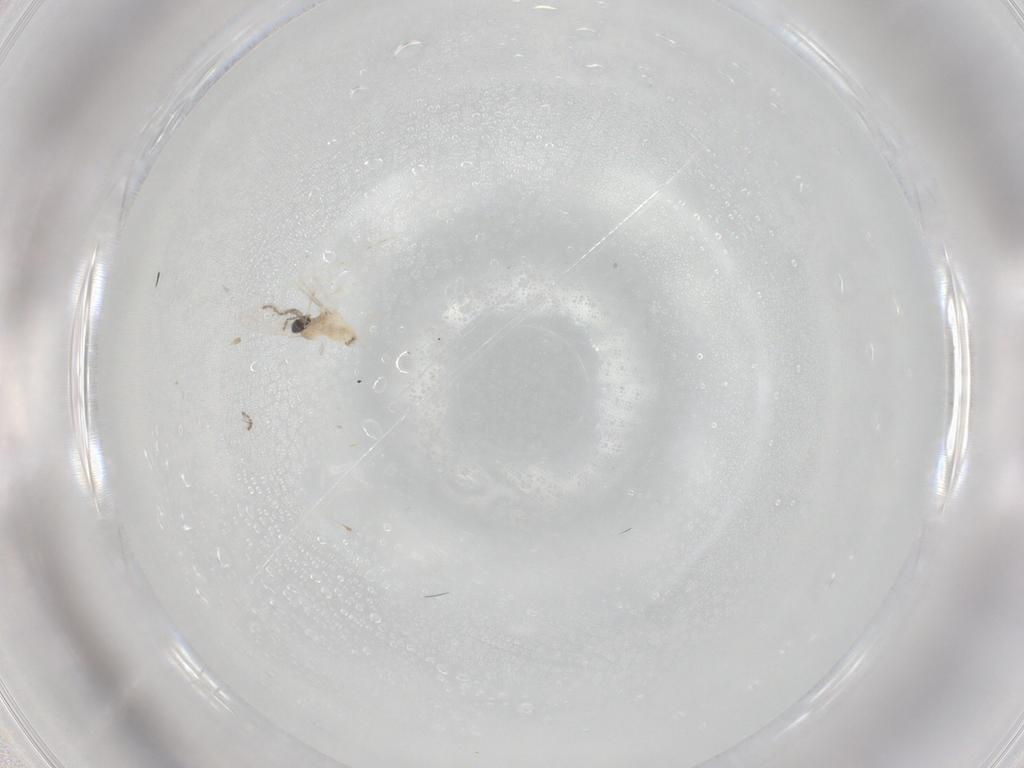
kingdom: Animalia
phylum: Arthropoda
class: Insecta
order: Diptera
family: Cecidomyiidae
